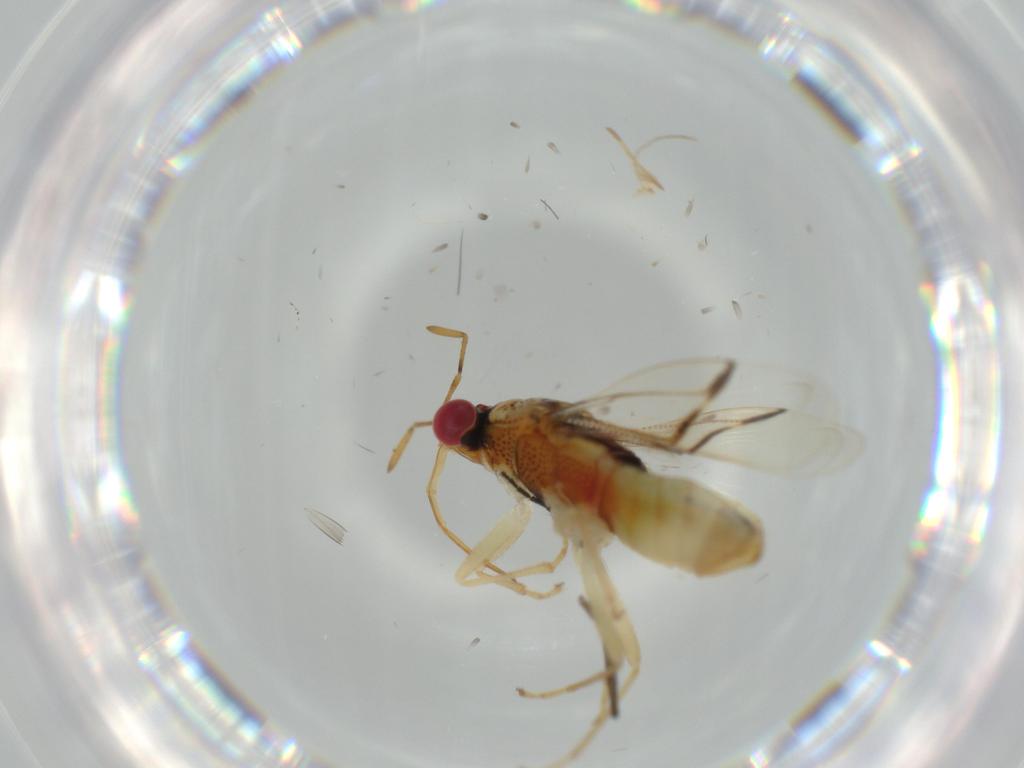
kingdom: Animalia
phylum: Arthropoda
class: Insecta
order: Hemiptera
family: Geocoridae
